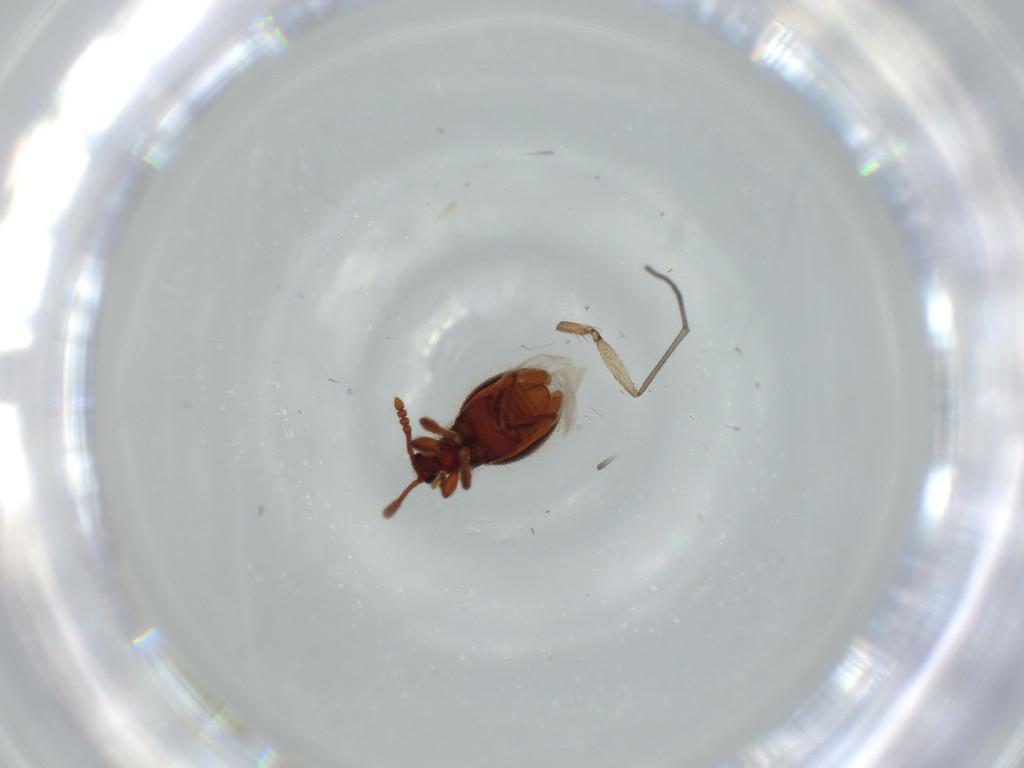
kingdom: Animalia
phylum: Arthropoda
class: Insecta
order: Coleoptera
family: Staphylinidae
